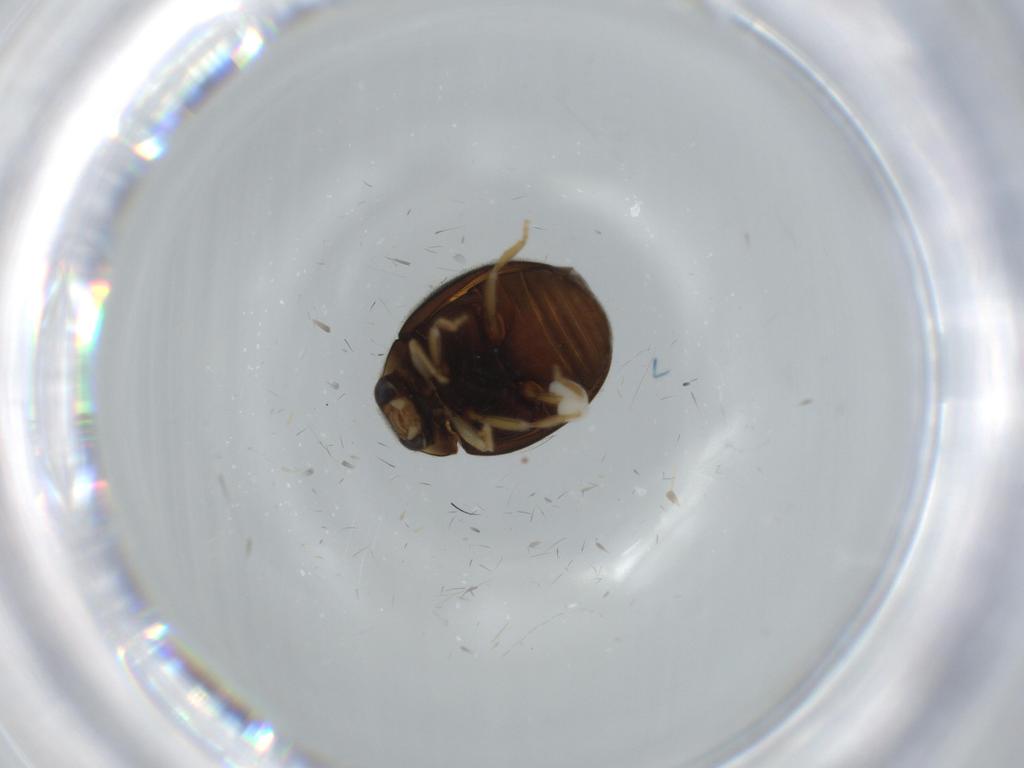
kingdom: Animalia
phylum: Arthropoda
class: Insecta
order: Coleoptera
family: Coccinellidae
